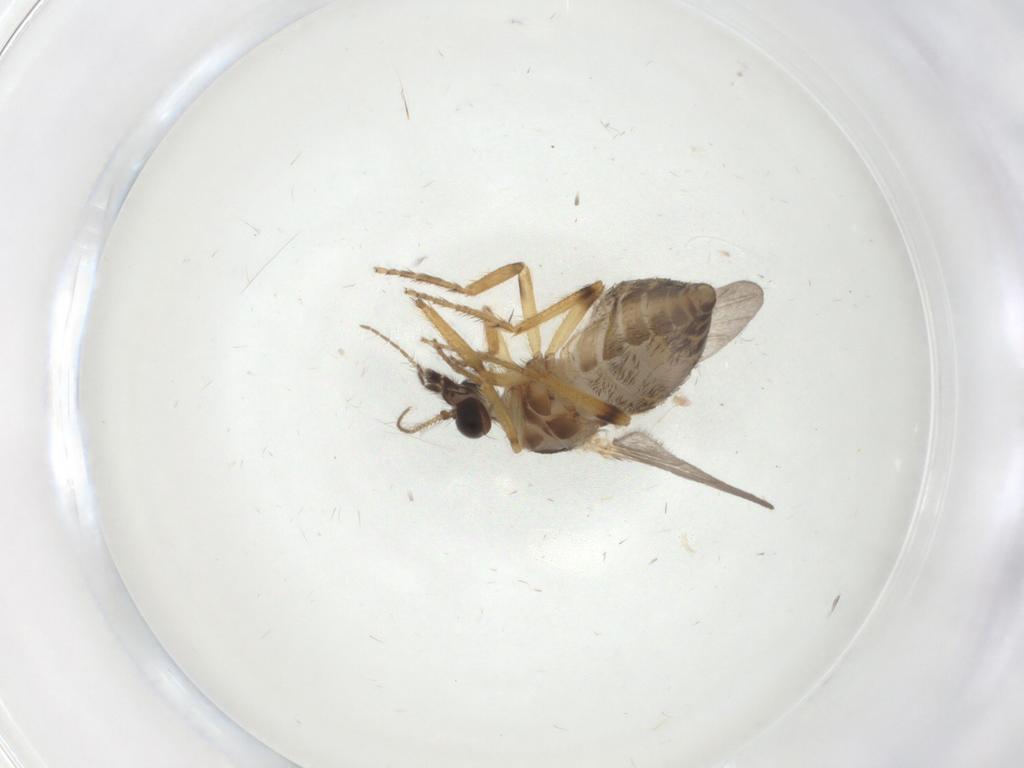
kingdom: Animalia
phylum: Arthropoda
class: Insecta
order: Diptera
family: Ceratopogonidae
